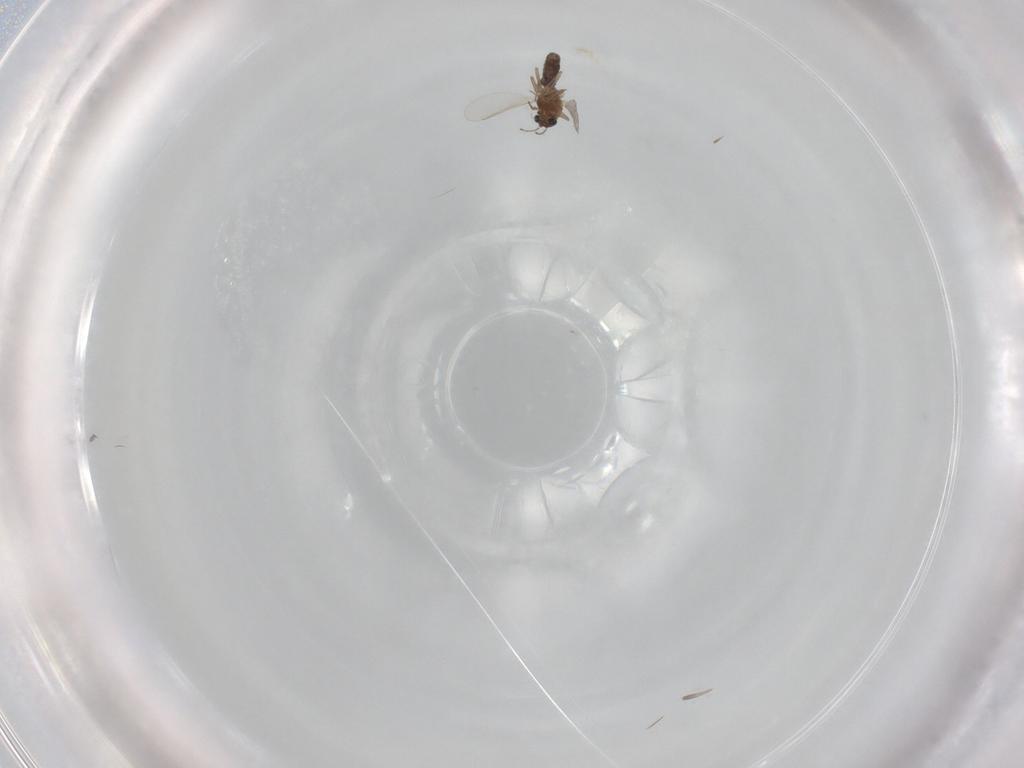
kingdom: Animalia
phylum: Arthropoda
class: Insecta
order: Diptera
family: Chironomidae
